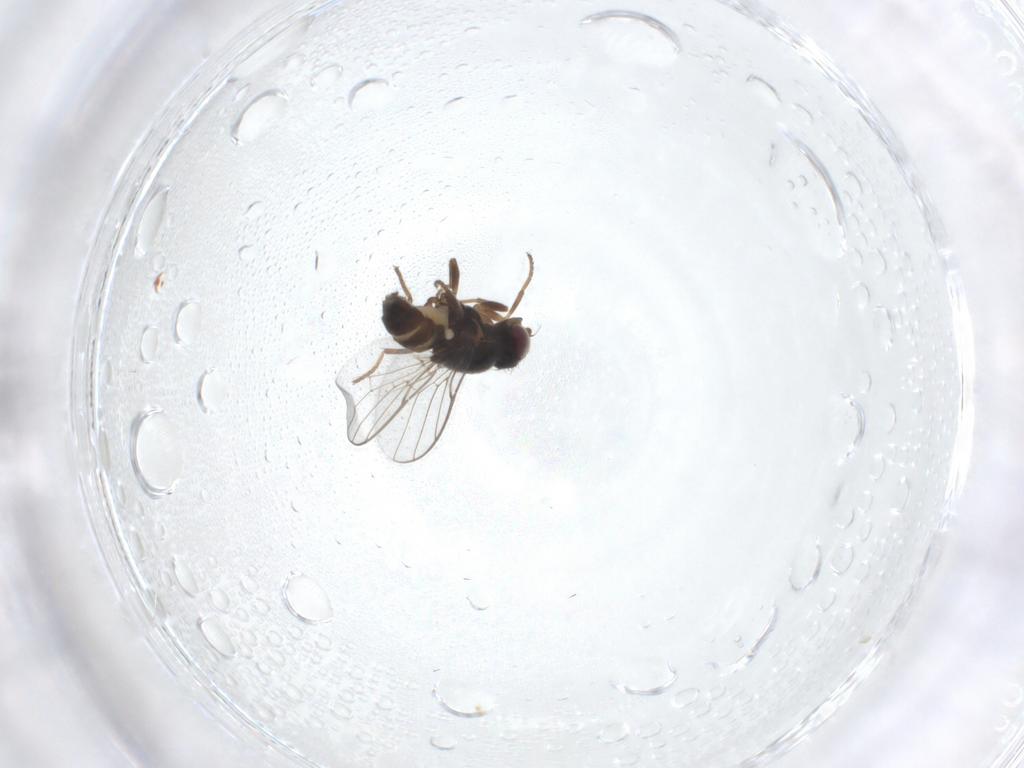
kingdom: Animalia
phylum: Arthropoda
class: Insecta
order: Diptera
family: Chloropidae
